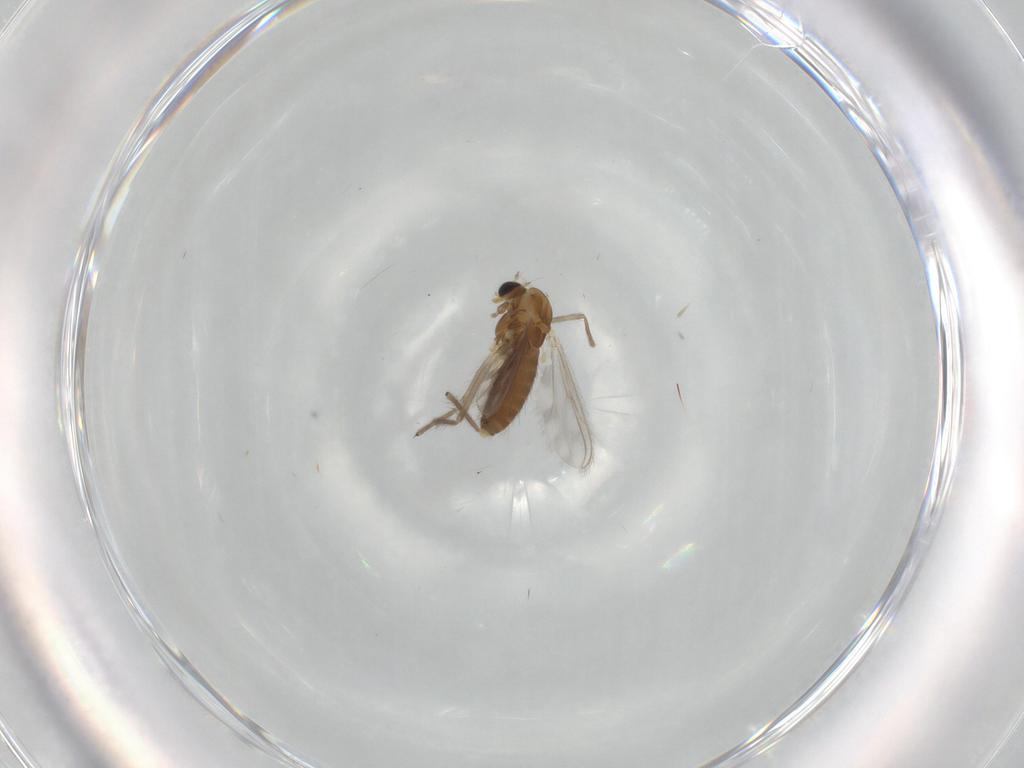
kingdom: Animalia
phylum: Arthropoda
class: Insecta
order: Diptera
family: Chironomidae
